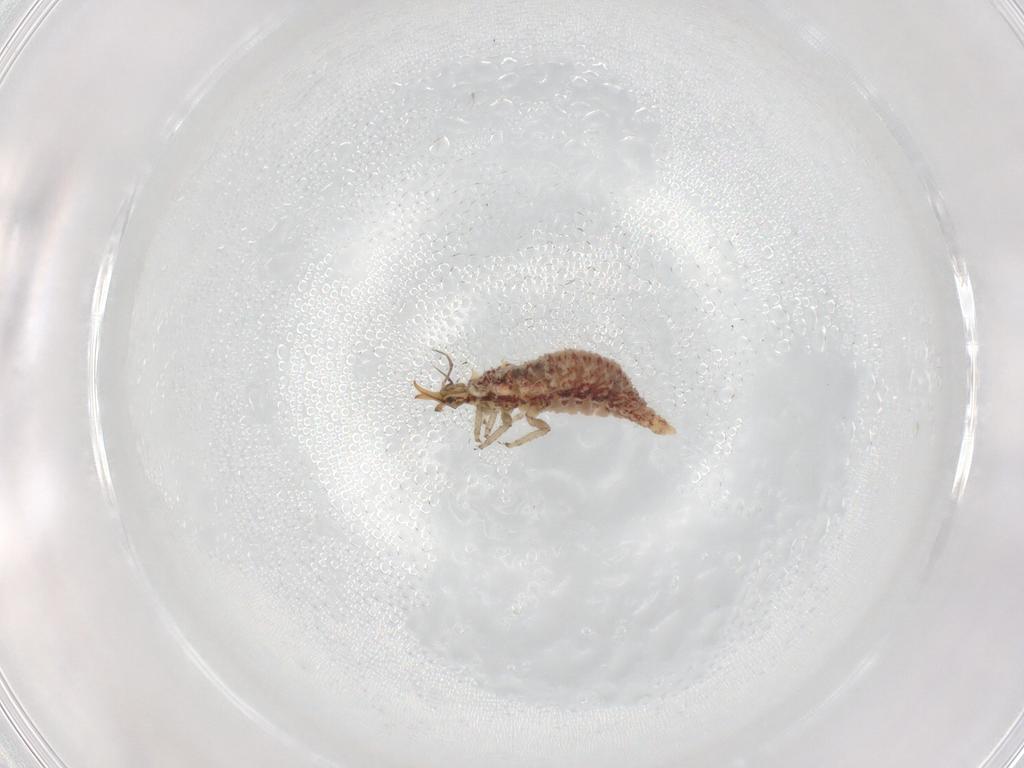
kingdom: Animalia
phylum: Arthropoda
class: Insecta
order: Neuroptera
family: Chrysopidae
